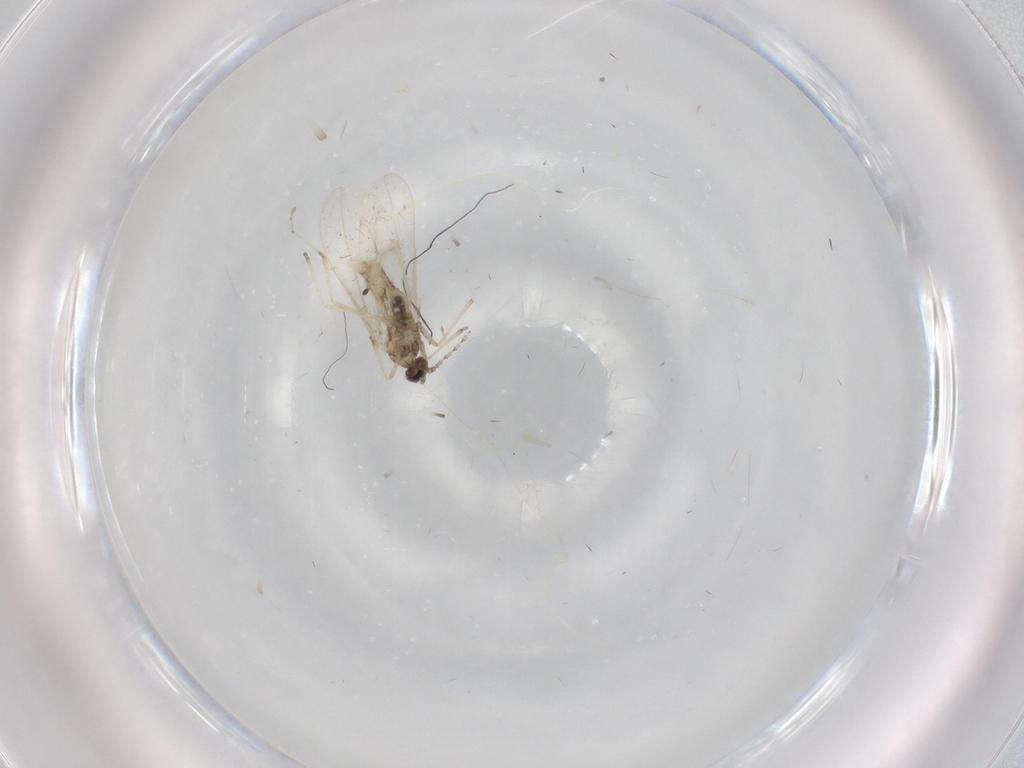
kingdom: Animalia
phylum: Arthropoda
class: Insecta
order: Diptera
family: Cecidomyiidae
